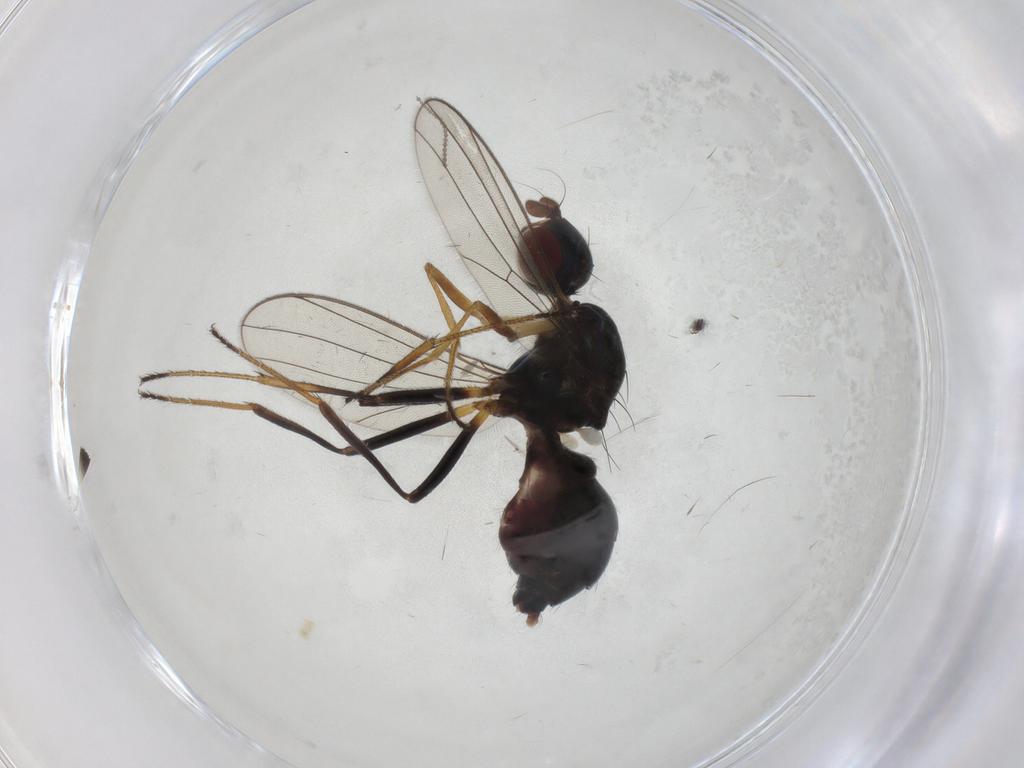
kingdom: Animalia
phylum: Arthropoda
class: Insecta
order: Diptera
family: Sepsidae
